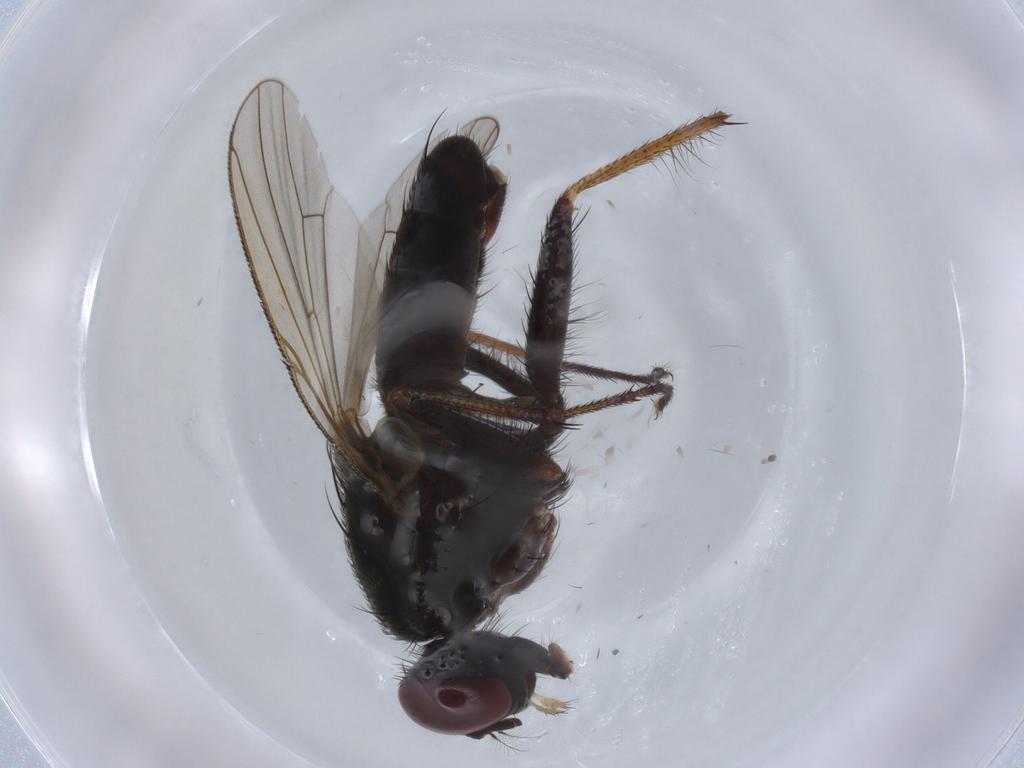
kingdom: Animalia
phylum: Arthropoda
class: Insecta
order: Diptera
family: Muscidae
